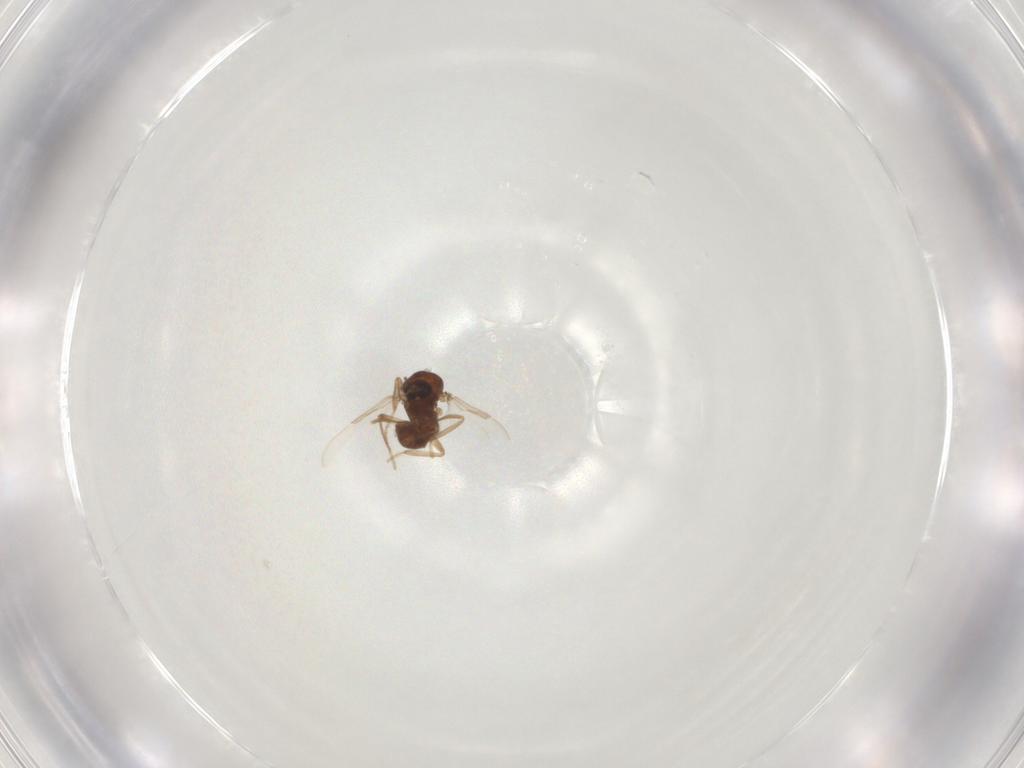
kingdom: Animalia
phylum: Arthropoda
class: Insecta
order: Diptera
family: Ceratopogonidae
